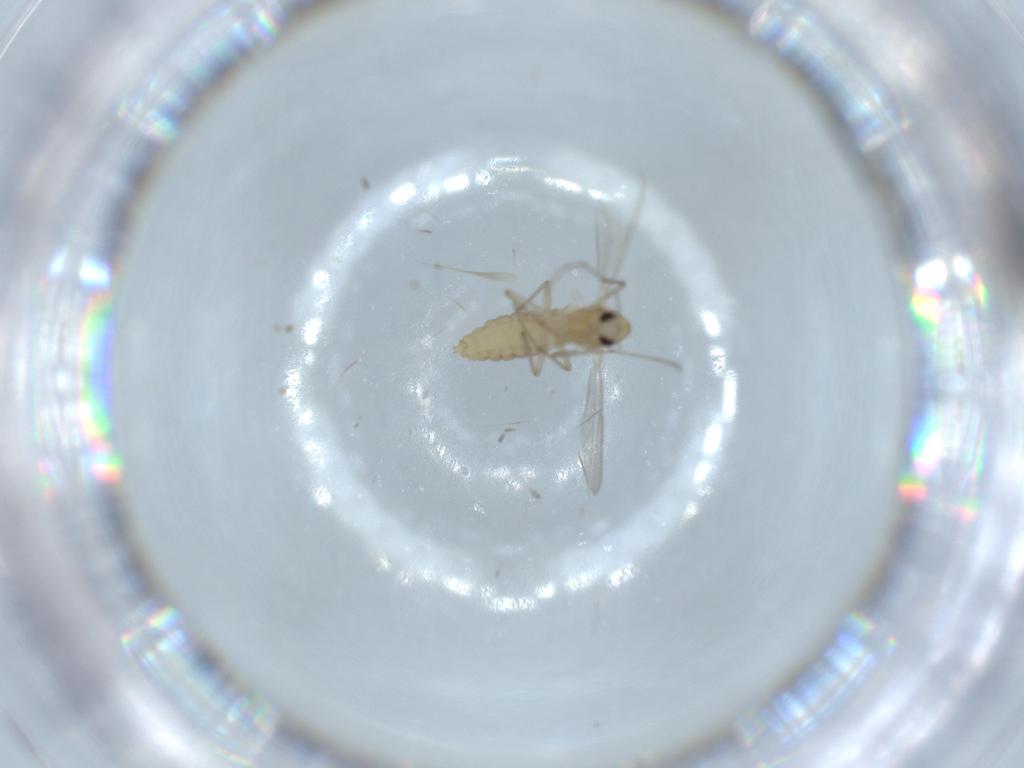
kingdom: Animalia
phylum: Arthropoda
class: Insecta
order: Diptera
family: Chironomidae
